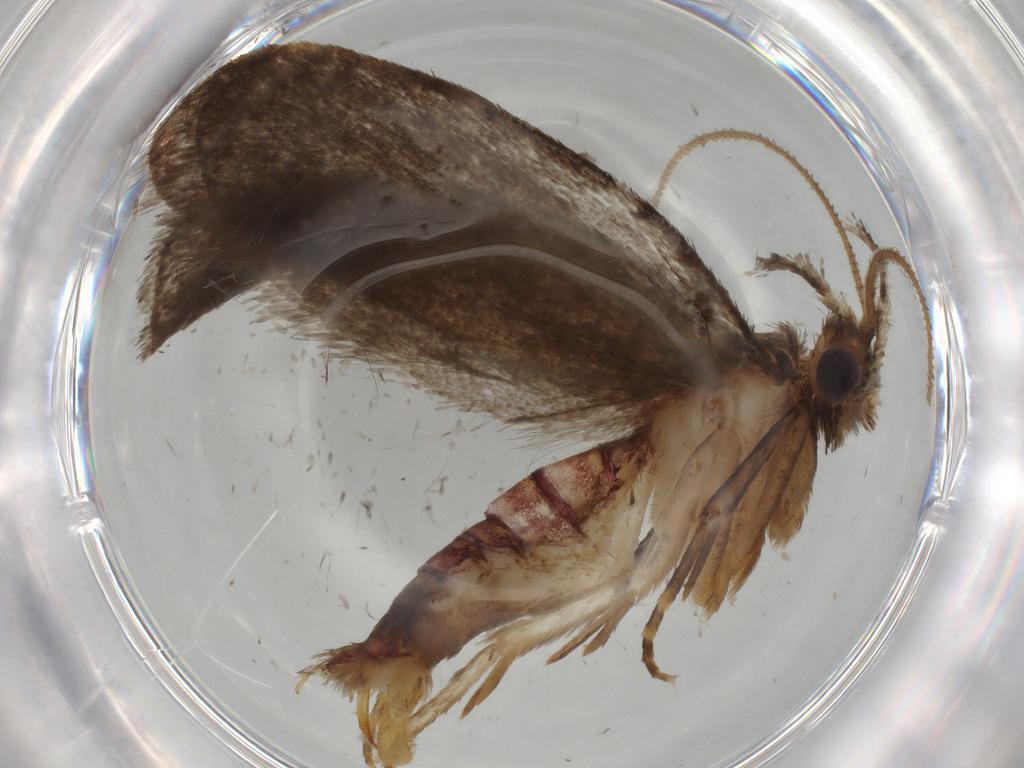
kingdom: Animalia
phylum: Arthropoda
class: Insecta
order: Lepidoptera
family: Tineidae
